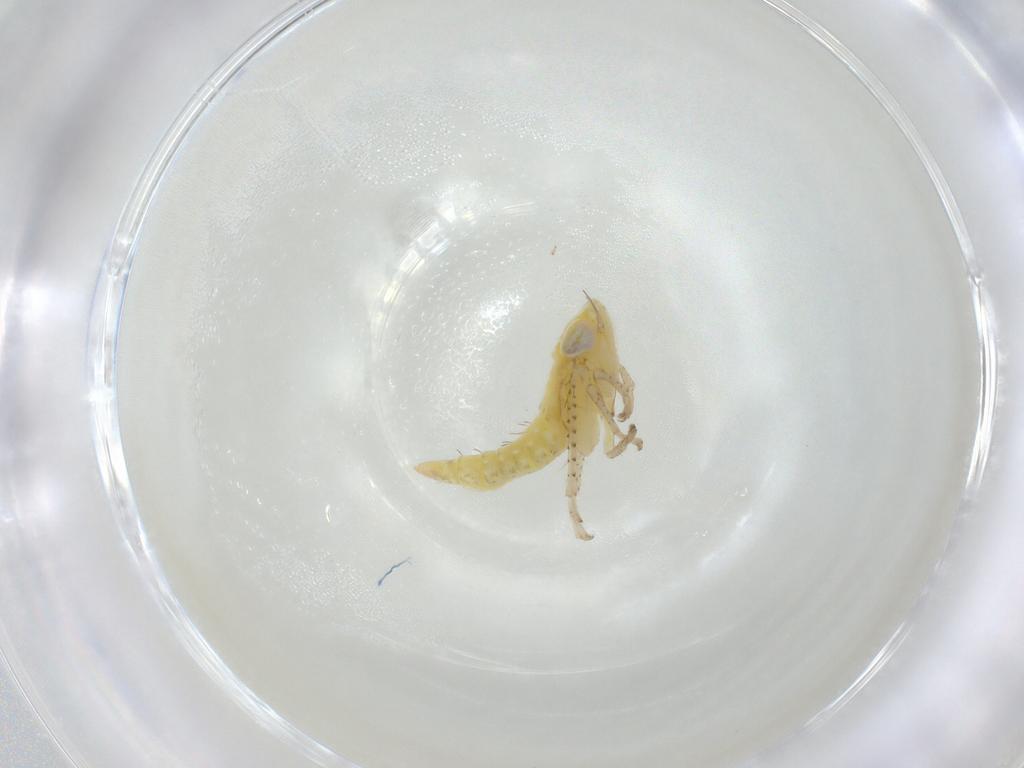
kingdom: Animalia
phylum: Arthropoda
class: Insecta
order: Hemiptera
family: Cicadellidae
